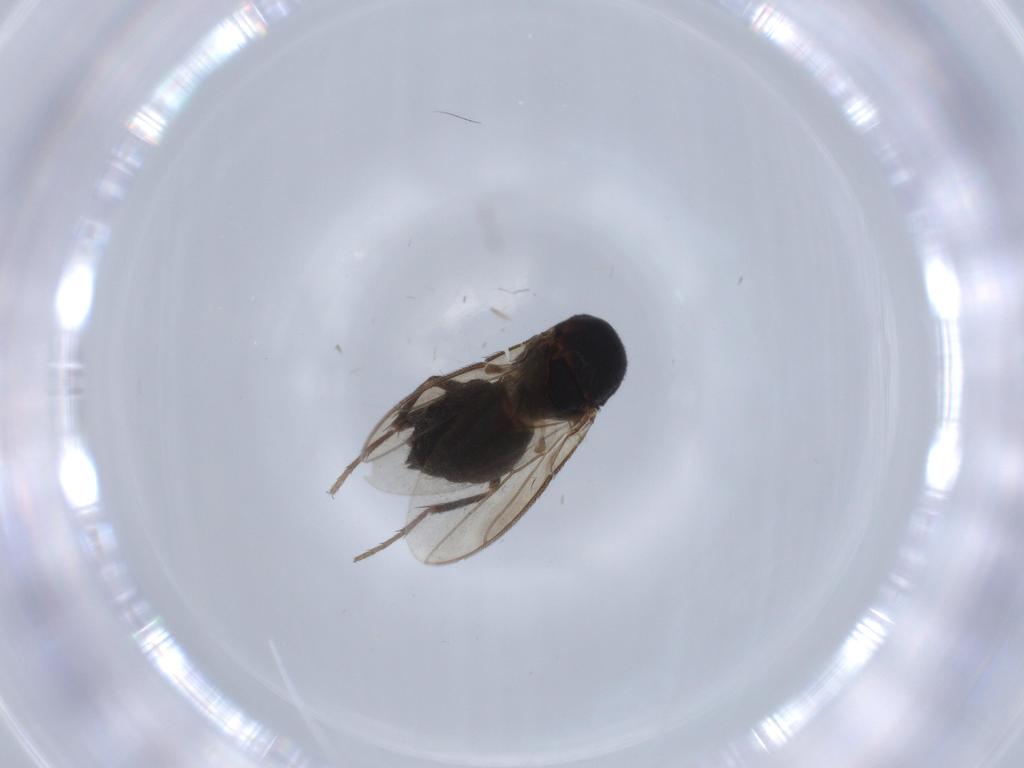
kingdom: Animalia
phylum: Arthropoda
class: Insecta
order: Diptera
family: Sphaeroceridae
